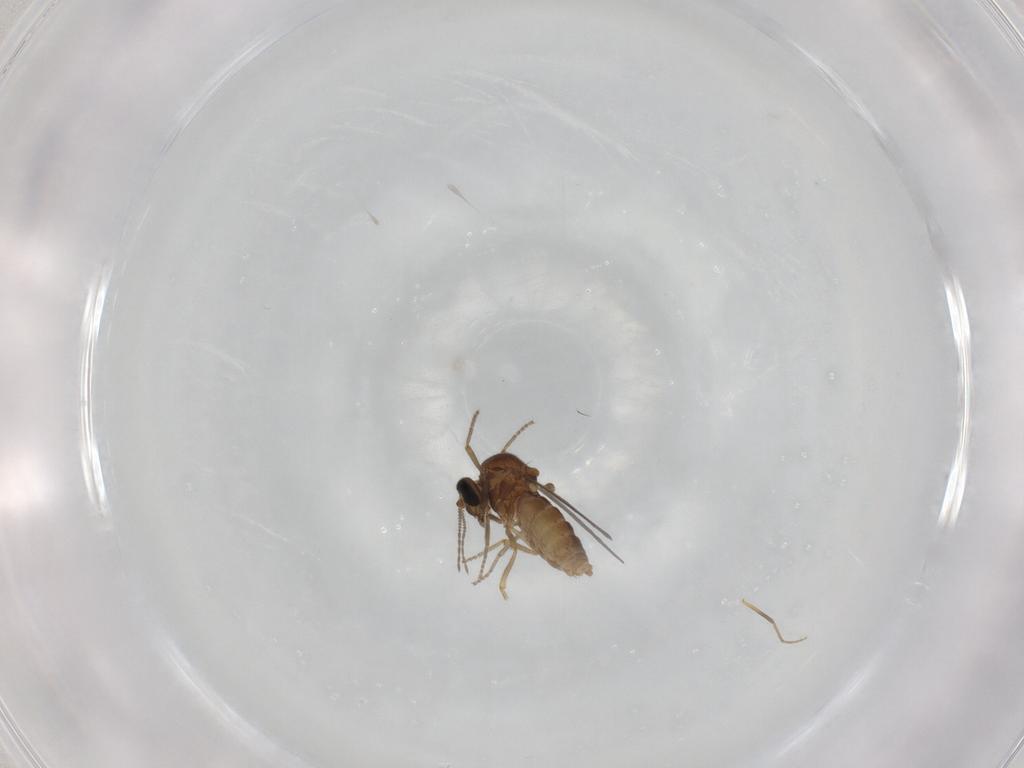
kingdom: Animalia
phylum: Arthropoda
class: Insecta
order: Diptera
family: Ceratopogonidae
